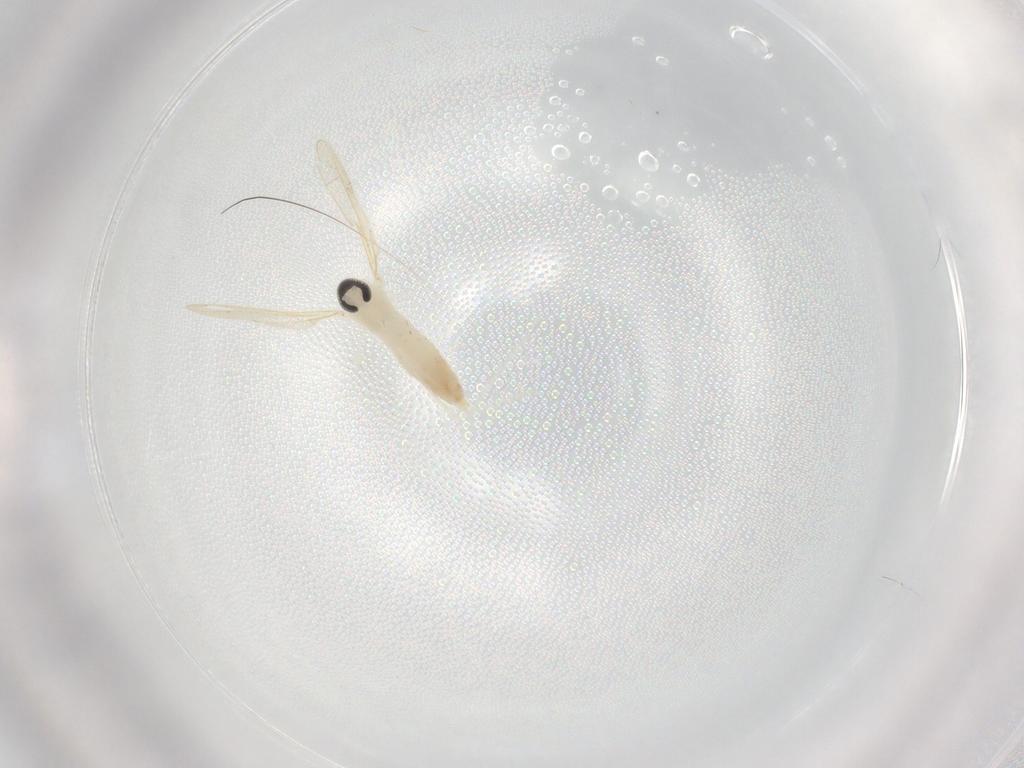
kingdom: Animalia
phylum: Arthropoda
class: Insecta
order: Diptera
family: Cecidomyiidae
